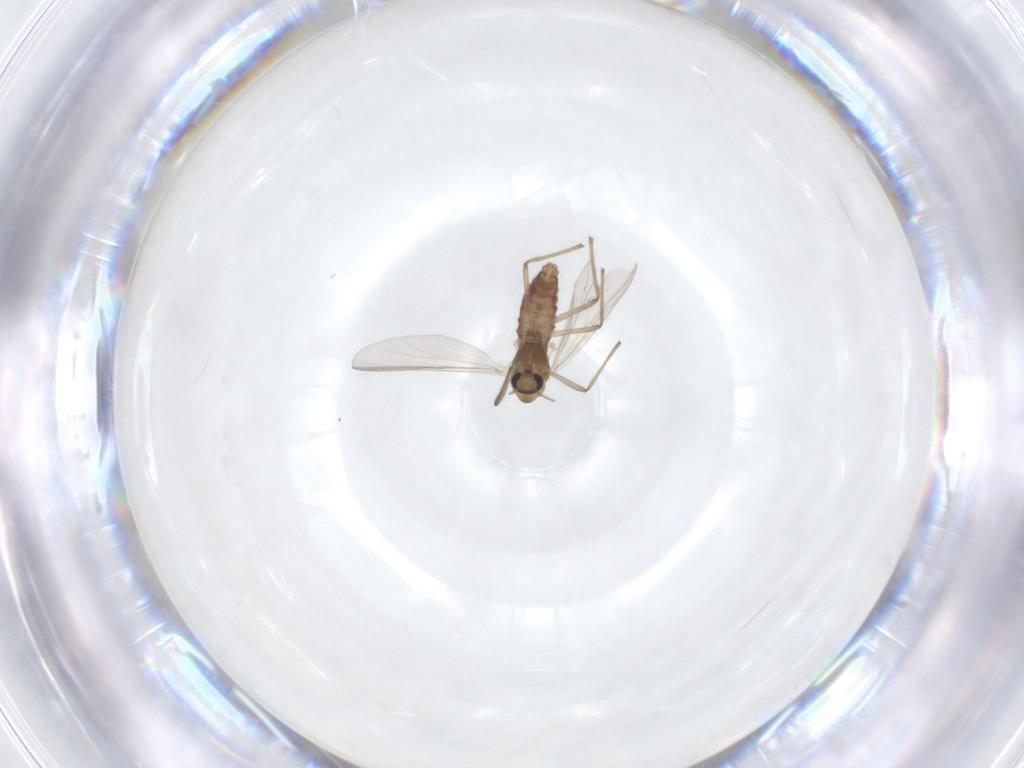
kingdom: Animalia
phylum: Arthropoda
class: Insecta
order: Diptera
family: Chironomidae
